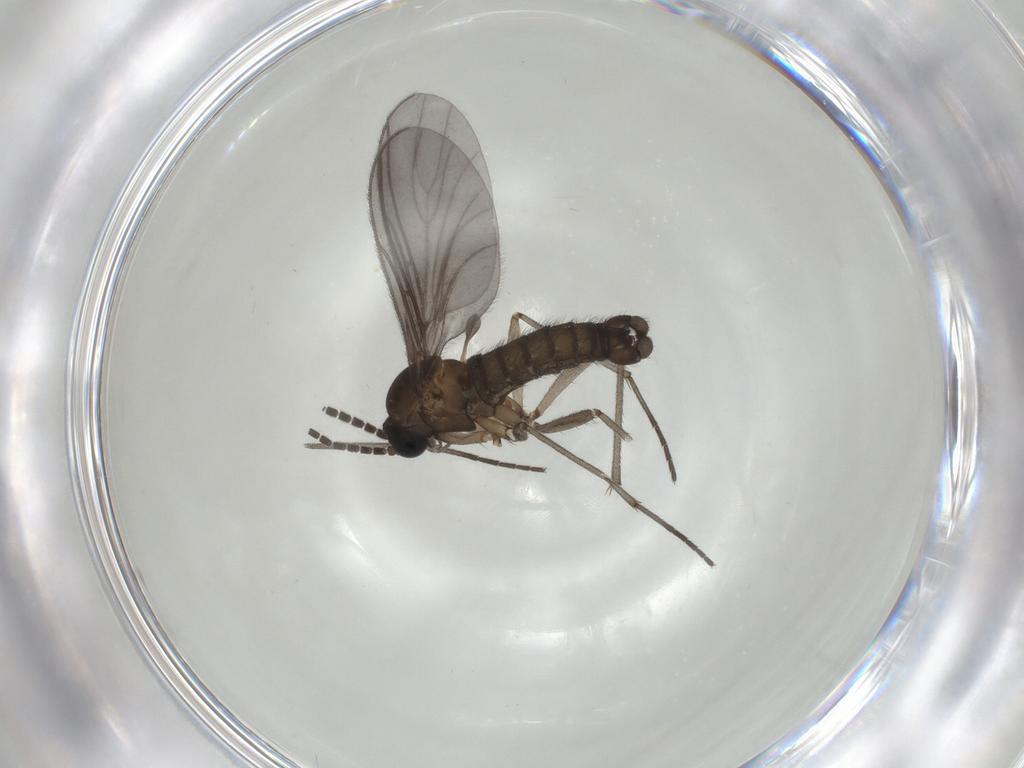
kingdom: Animalia
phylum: Arthropoda
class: Insecta
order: Diptera
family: Sciaridae
